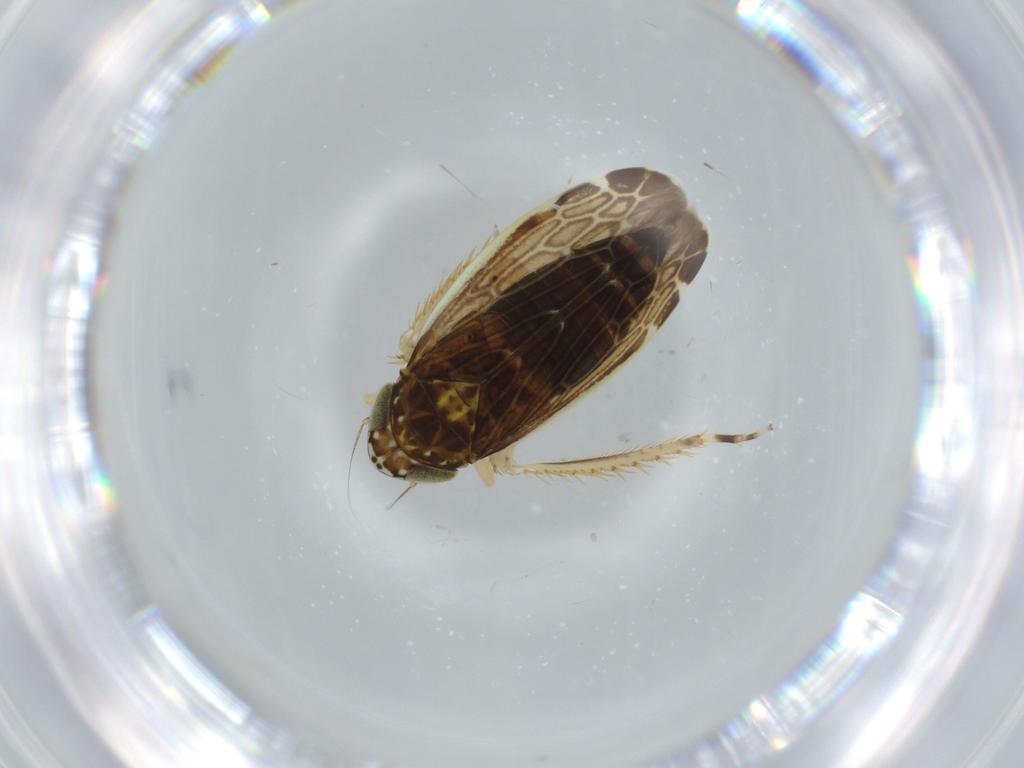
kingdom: Animalia
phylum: Arthropoda
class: Insecta
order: Hemiptera
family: Cicadellidae
